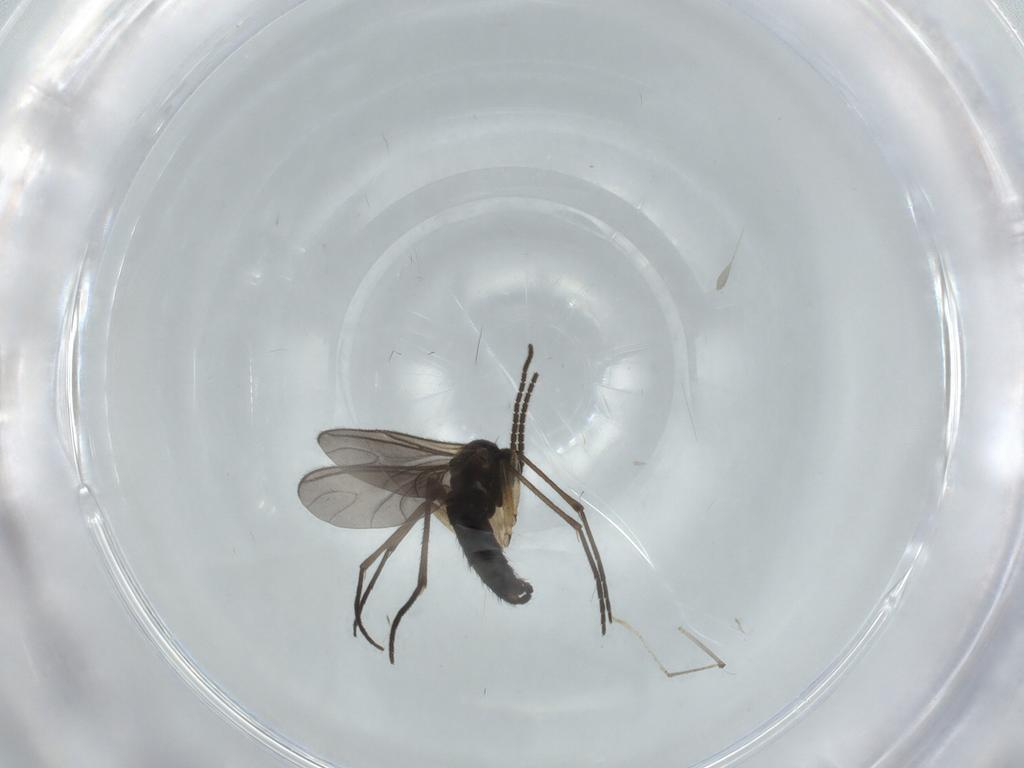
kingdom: Animalia
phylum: Arthropoda
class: Insecta
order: Diptera
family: Sciaridae
